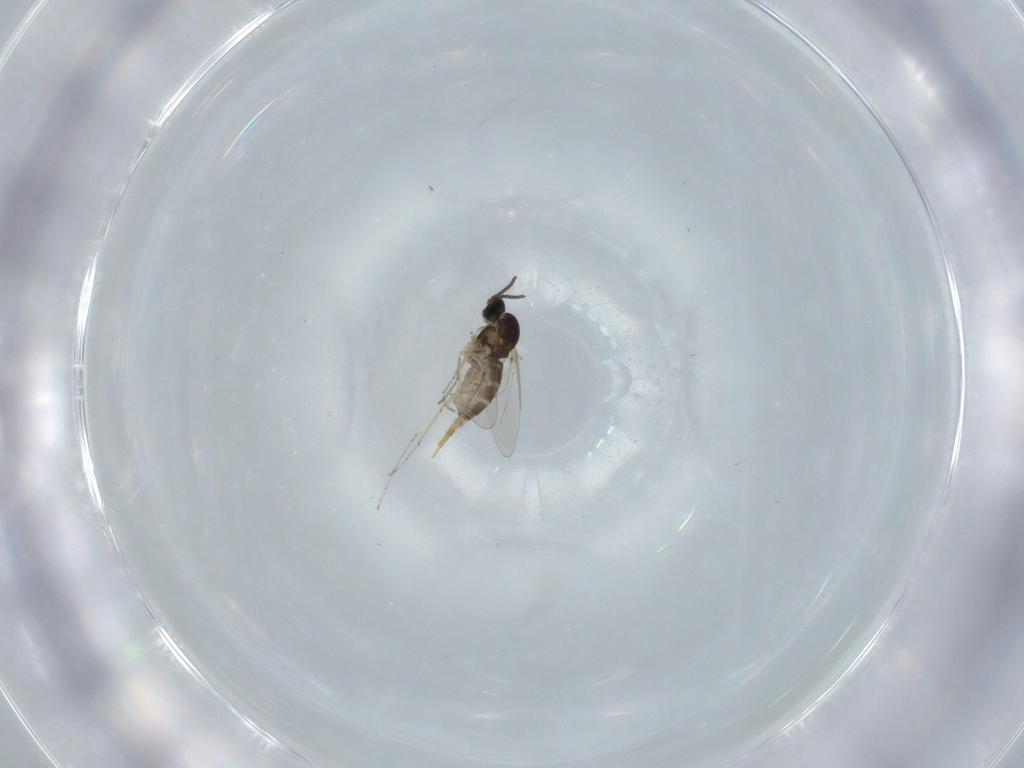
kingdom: Animalia
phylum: Arthropoda
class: Insecta
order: Diptera
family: Cecidomyiidae
